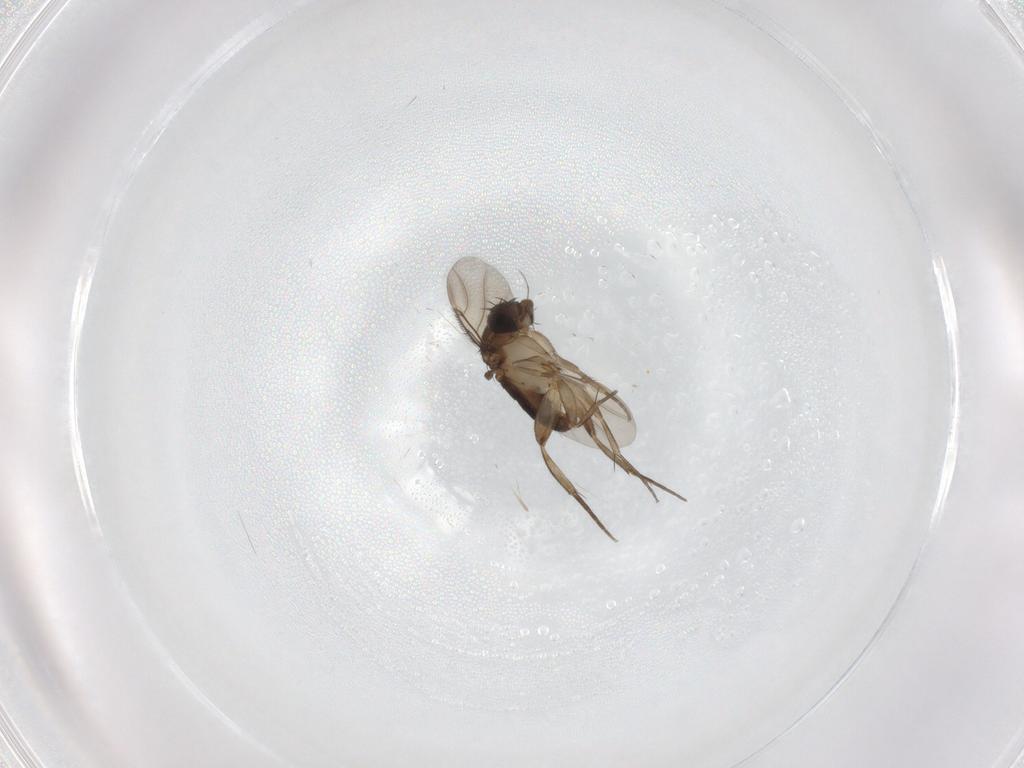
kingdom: Animalia
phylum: Arthropoda
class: Insecta
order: Diptera
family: Phoridae
